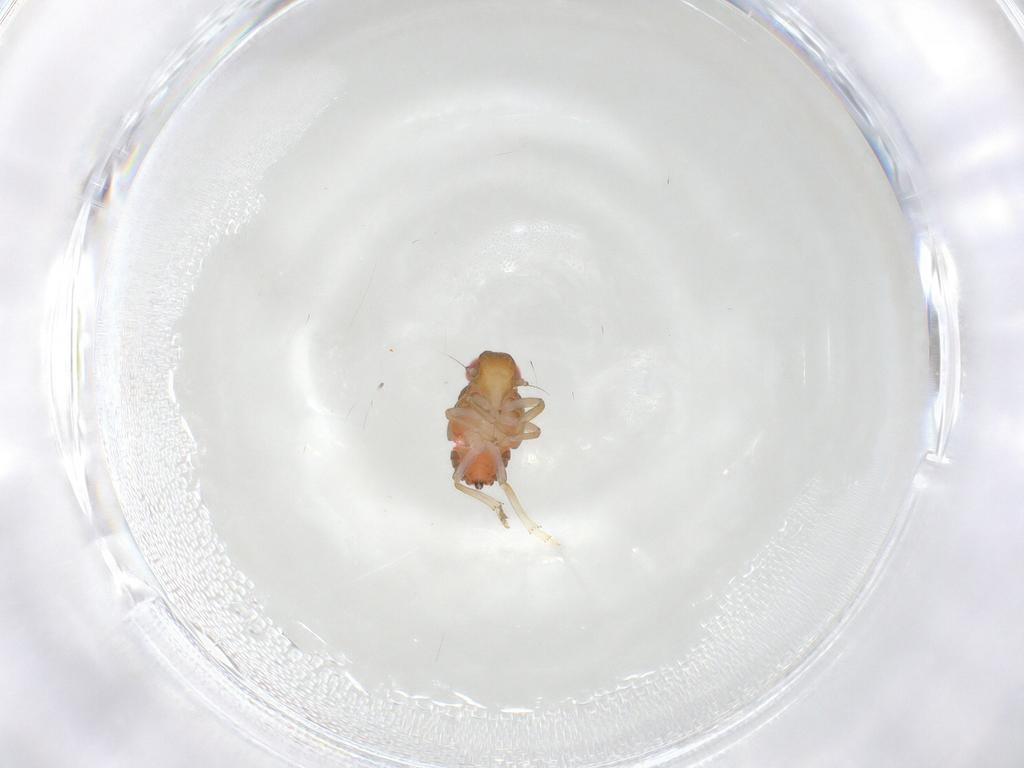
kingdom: Animalia
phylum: Arthropoda
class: Insecta
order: Hemiptera
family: Issidae
